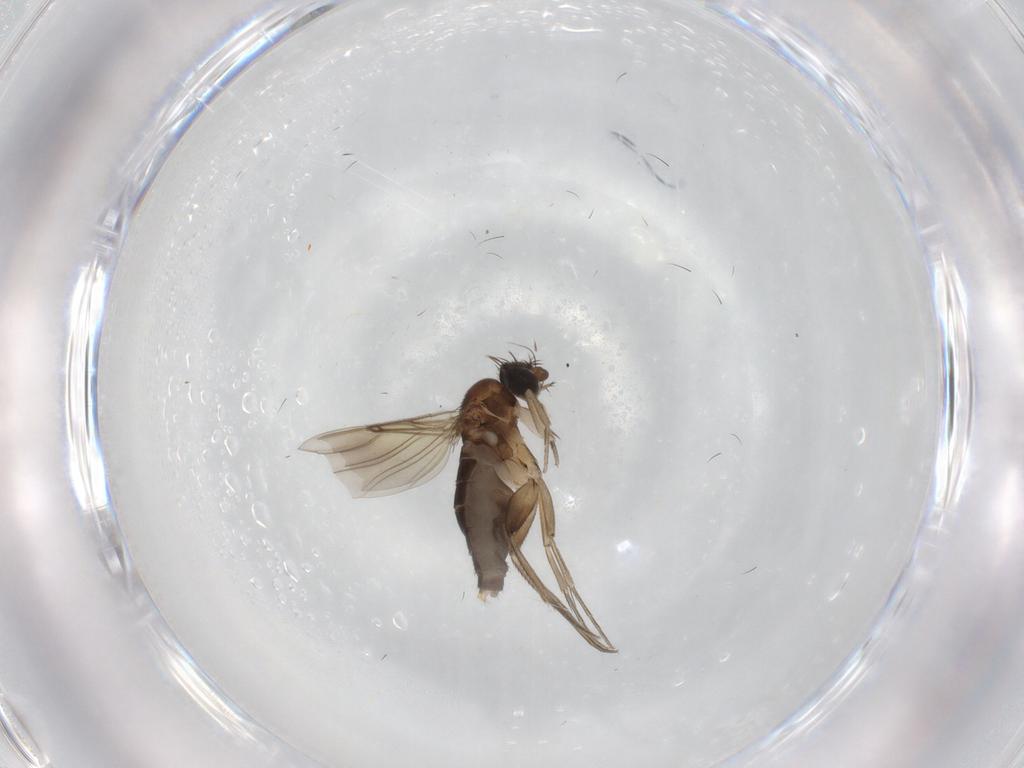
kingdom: Animalia
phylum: Arthropoda
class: Insecta
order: Diptera
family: Phoridae
